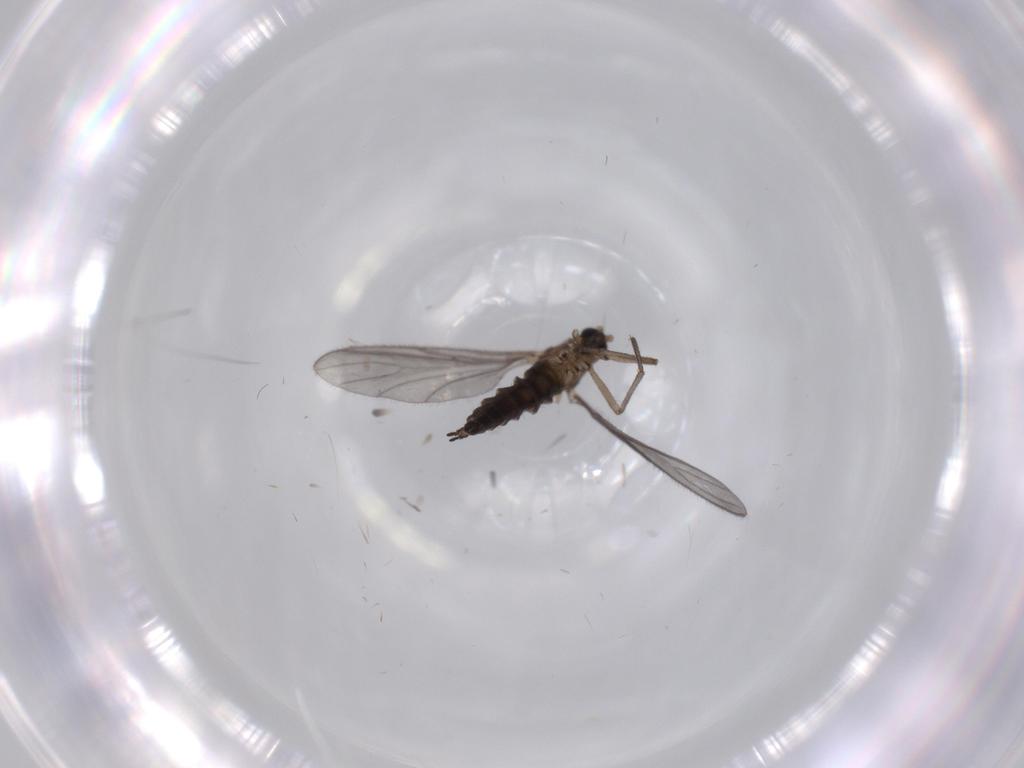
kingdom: Animalia
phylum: Arthropoda
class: Insecta
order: Diptera
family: Sciaridae
